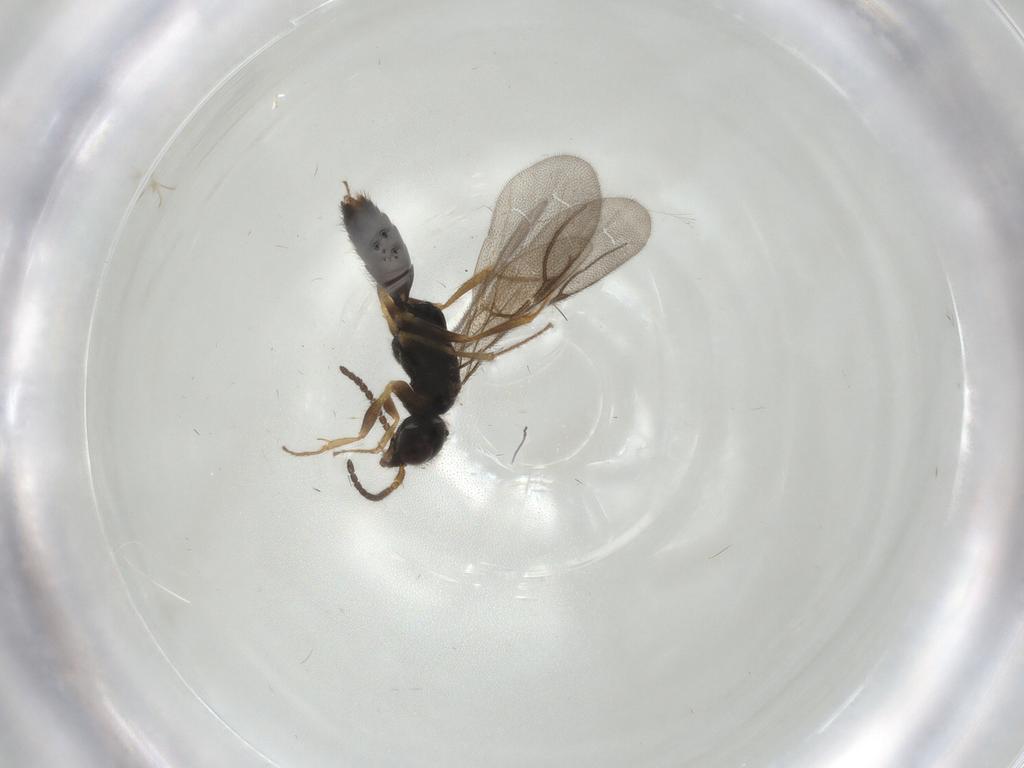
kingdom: Animalia
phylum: Arthropoda
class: Insecta
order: Hymenoptera
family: Bethylidae
